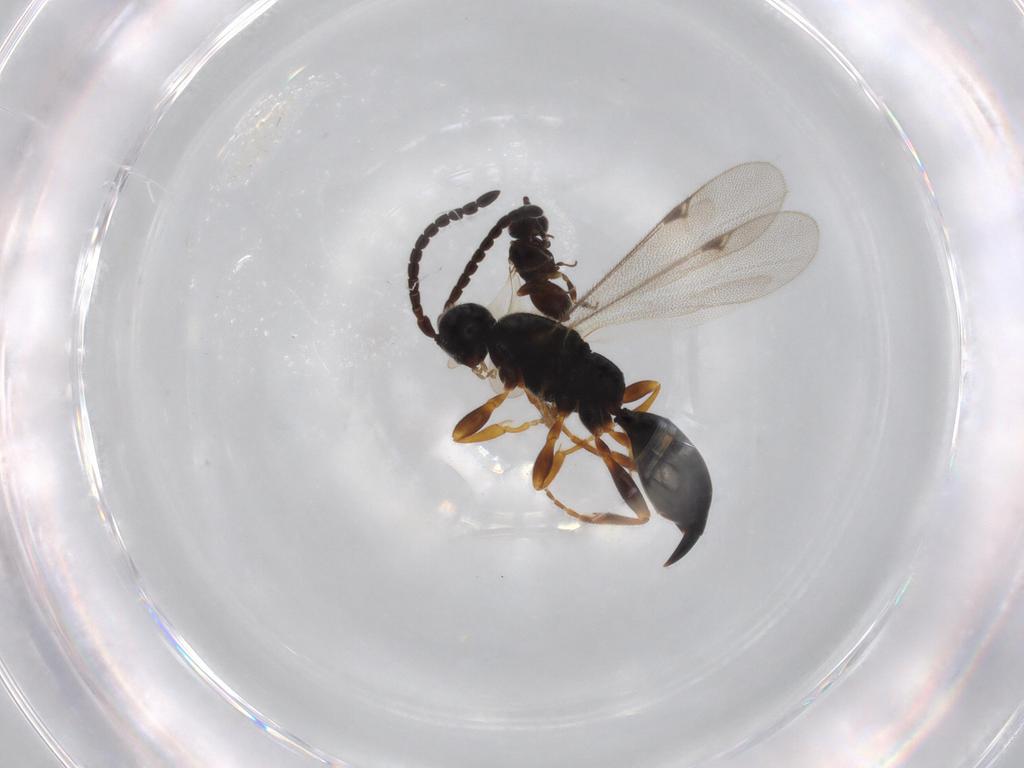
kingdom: Animalia
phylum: Arthropoda
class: Insecta
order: Hymenoptera
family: Ceraphronidae
